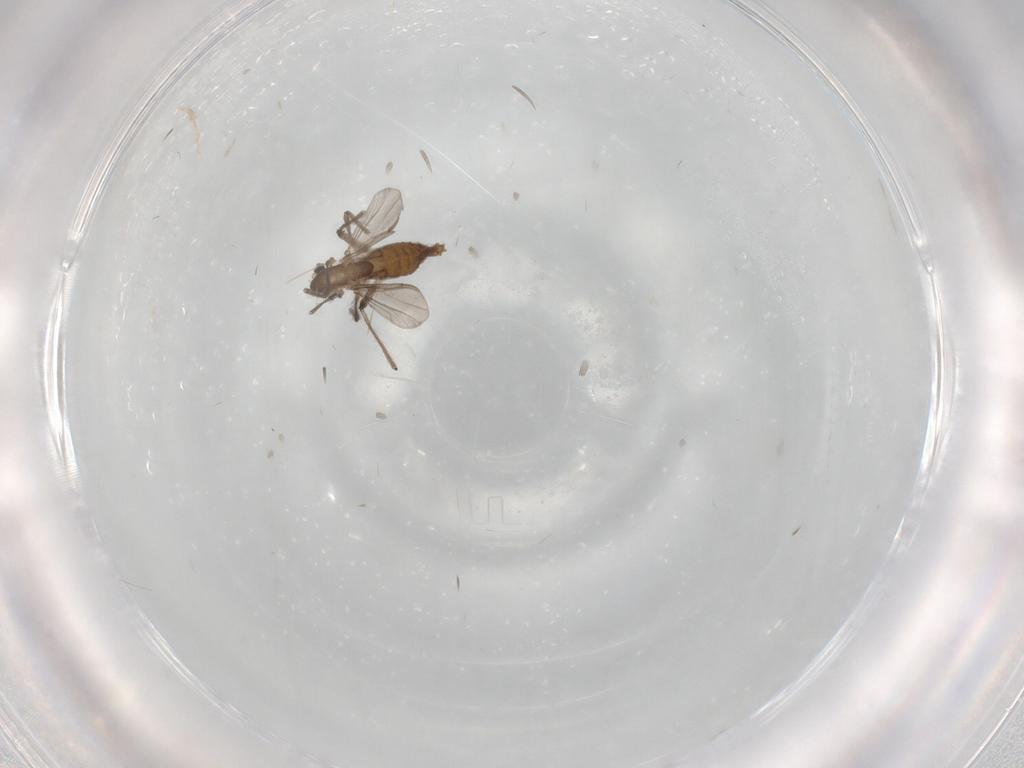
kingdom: Animalia
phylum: Arthropoda
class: Insecta
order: Diptera
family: Syrphidae
